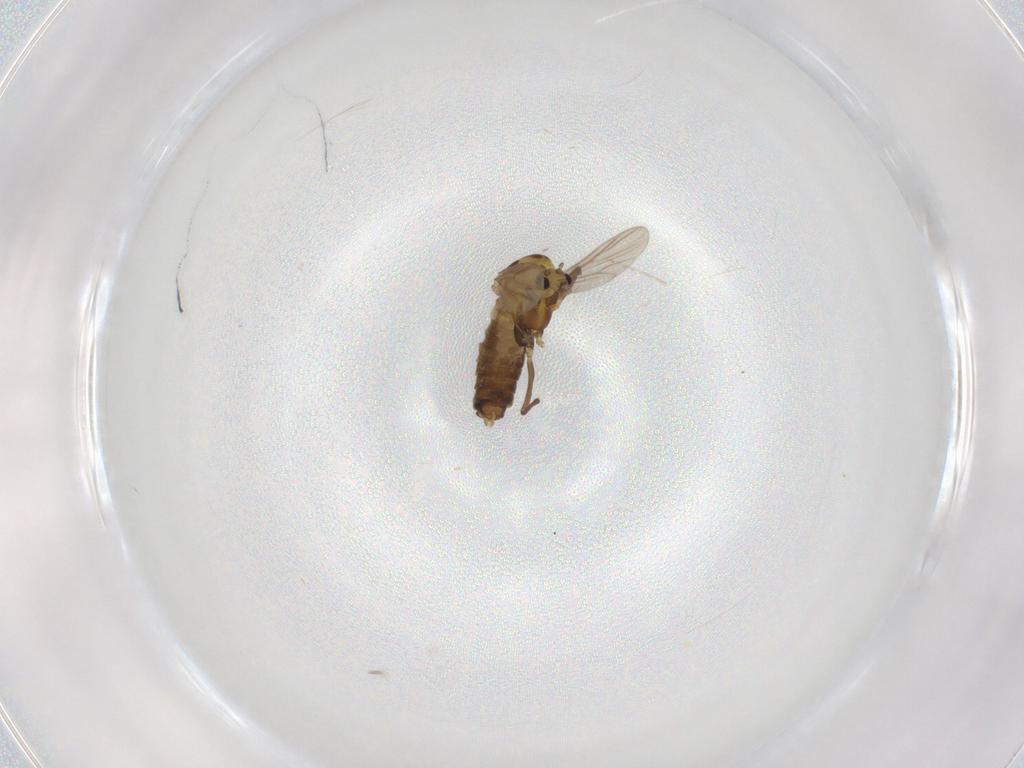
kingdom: Animalia
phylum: Arthropoda
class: Insecta
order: Diptera
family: Chironomidae
